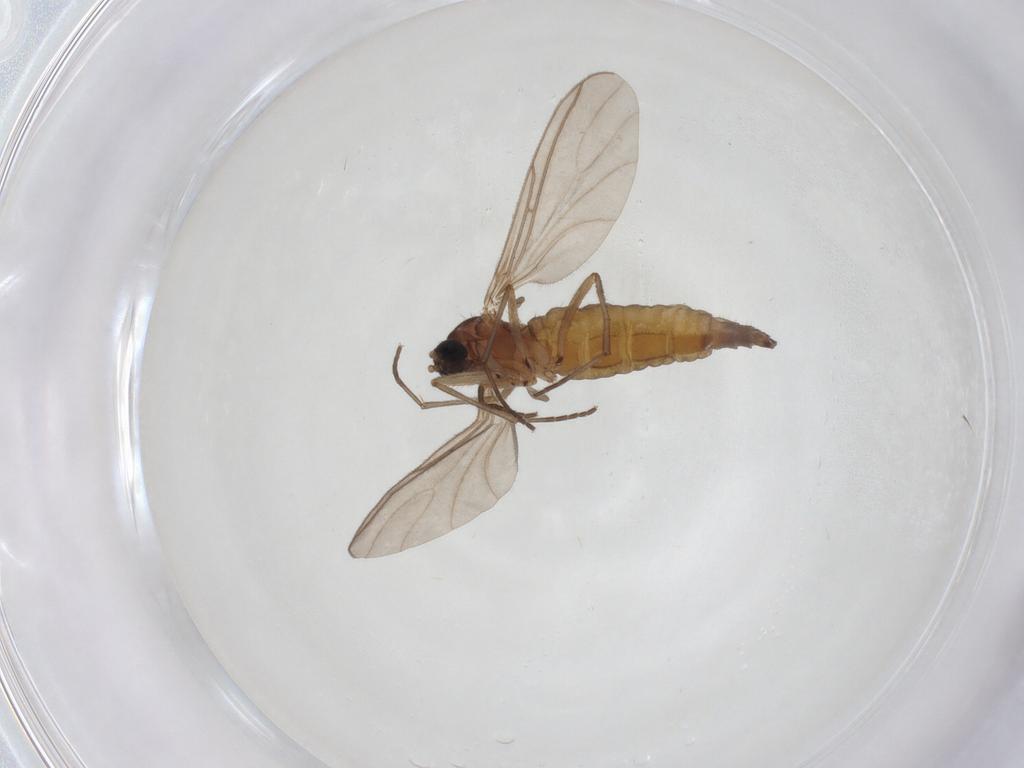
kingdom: Animalia
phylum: Arthropoda
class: Insecta
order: Diptera
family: Sciaridae
